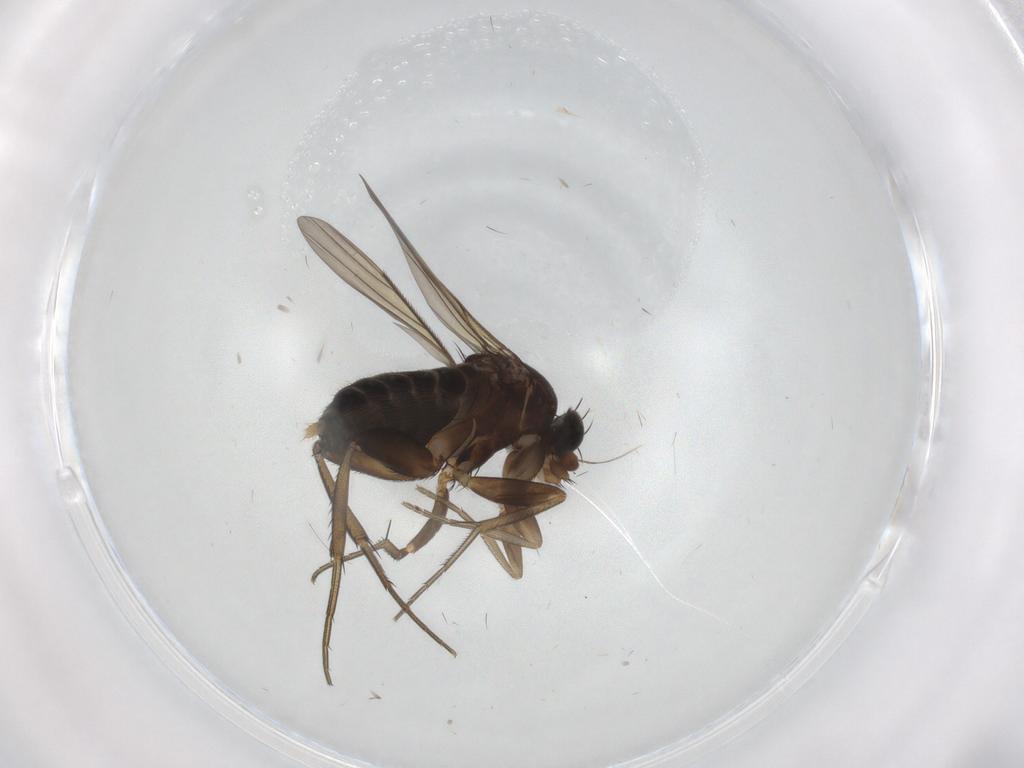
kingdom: Animalia
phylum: Arthropoda
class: Insecta
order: Diptera
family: Phoridae
